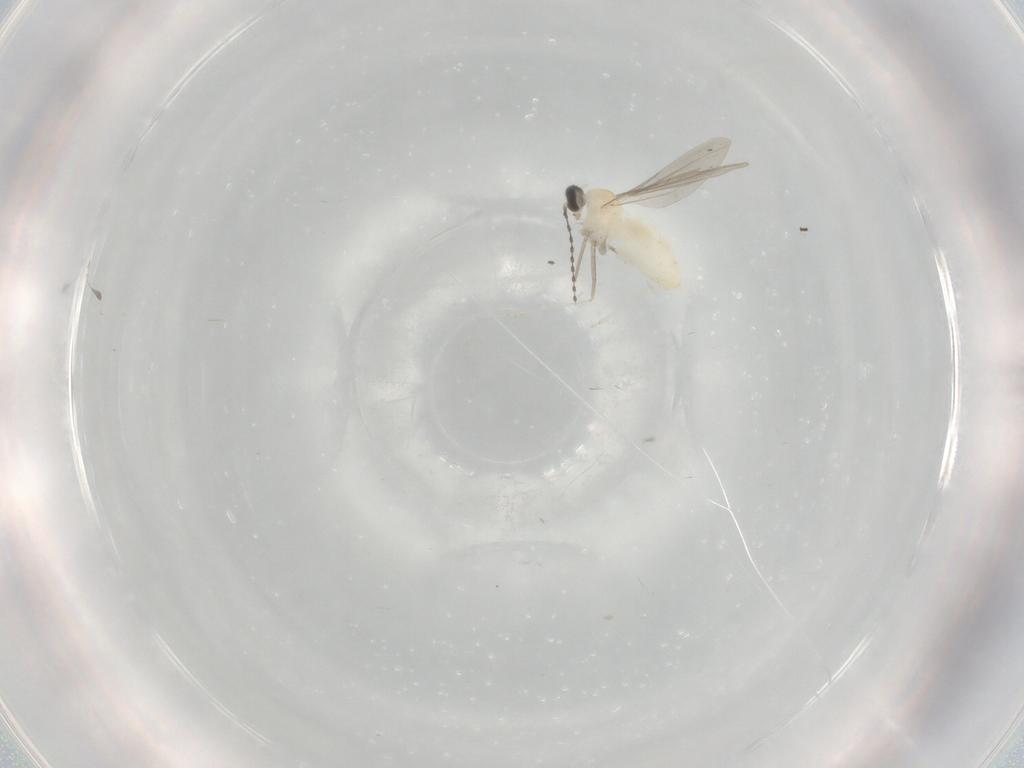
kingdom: Animalia
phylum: Arthropoda
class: Insecta
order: Diptera
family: Cecidomyiidae
